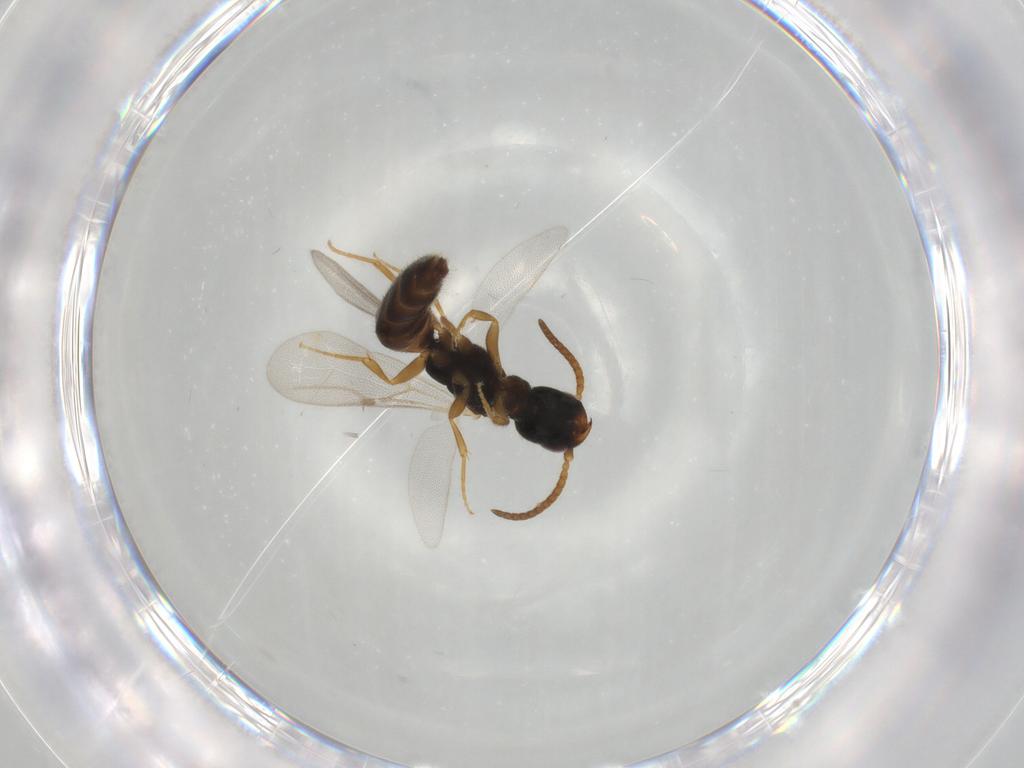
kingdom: Animalia
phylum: Arthropoda
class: Insecta
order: Hymenoptera
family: Bethylidae
